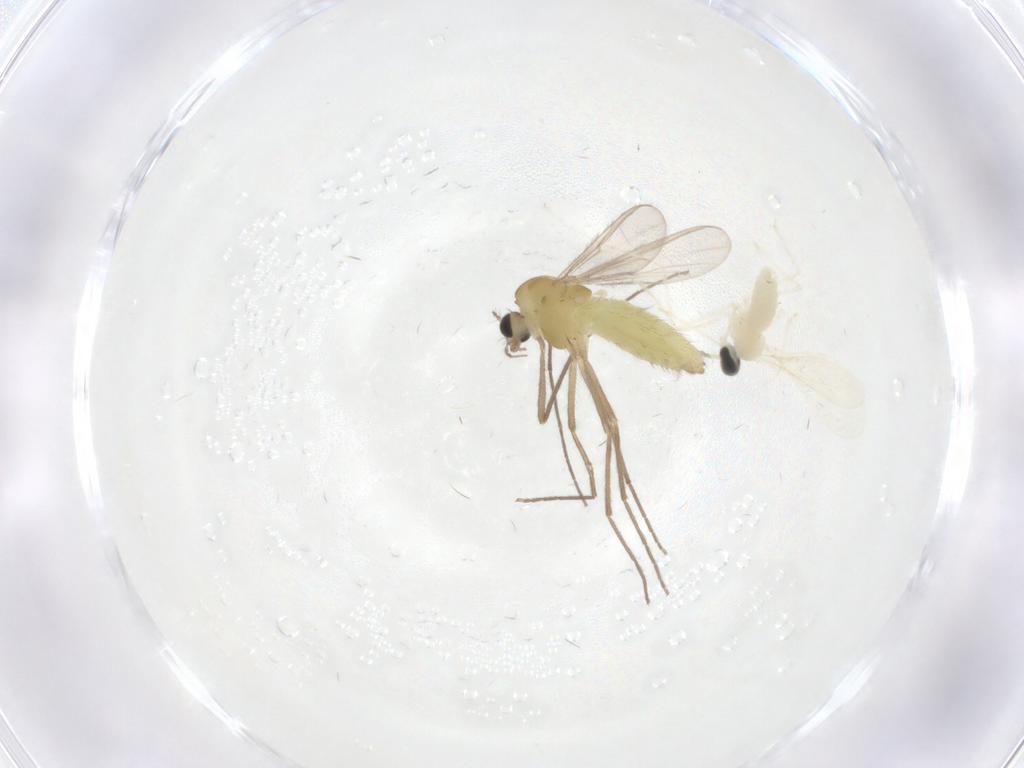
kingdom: Animalia
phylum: Arthropoda
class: Insecta
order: Diptera
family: Cecidomyiidae
